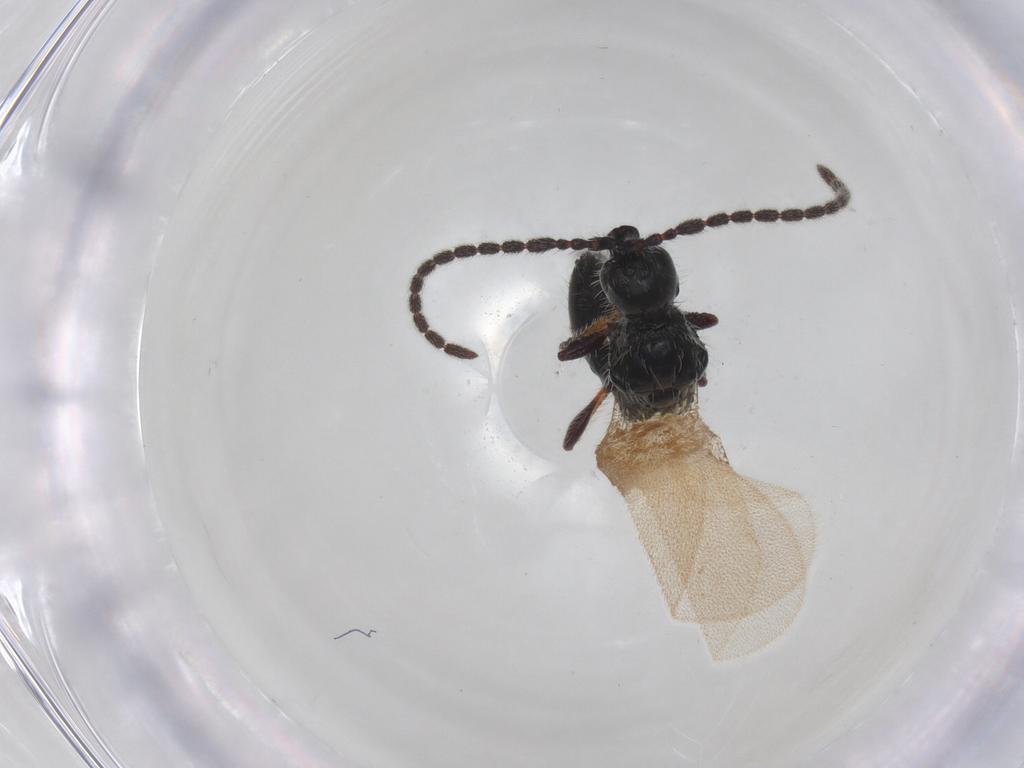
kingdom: Animalia
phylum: Arthropoda
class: Insecta
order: Hymenoptera
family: Diapriidae
